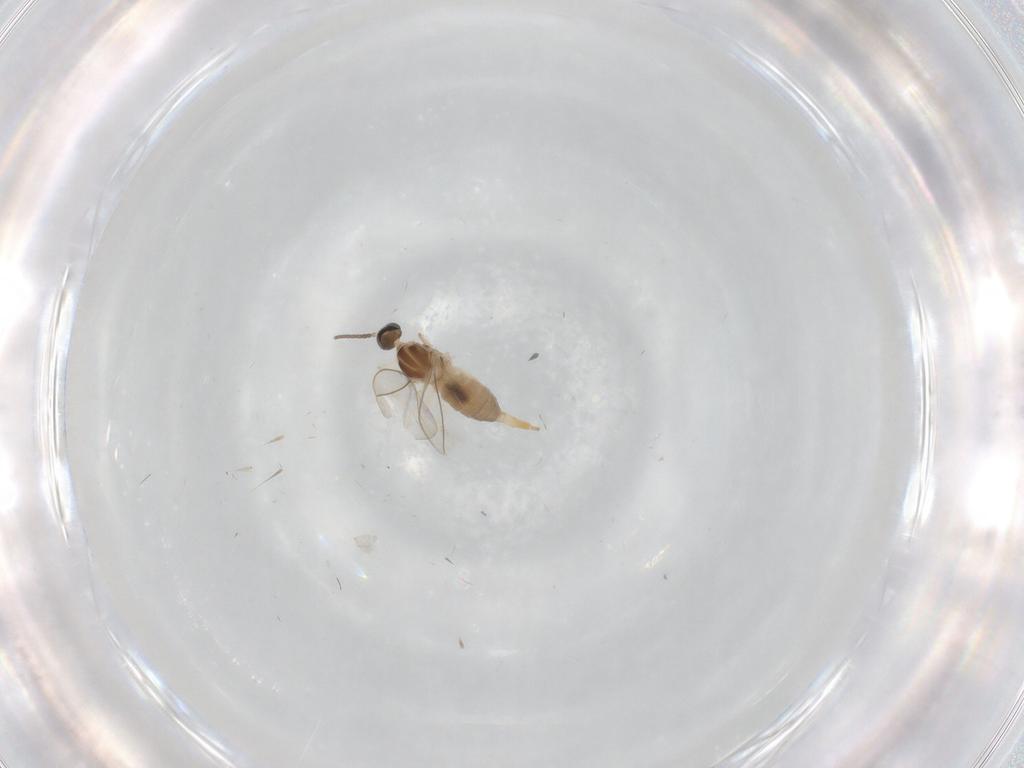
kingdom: Animalia
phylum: Arthropoda
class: Insecta
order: Diptera
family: Cecidomyiidae
